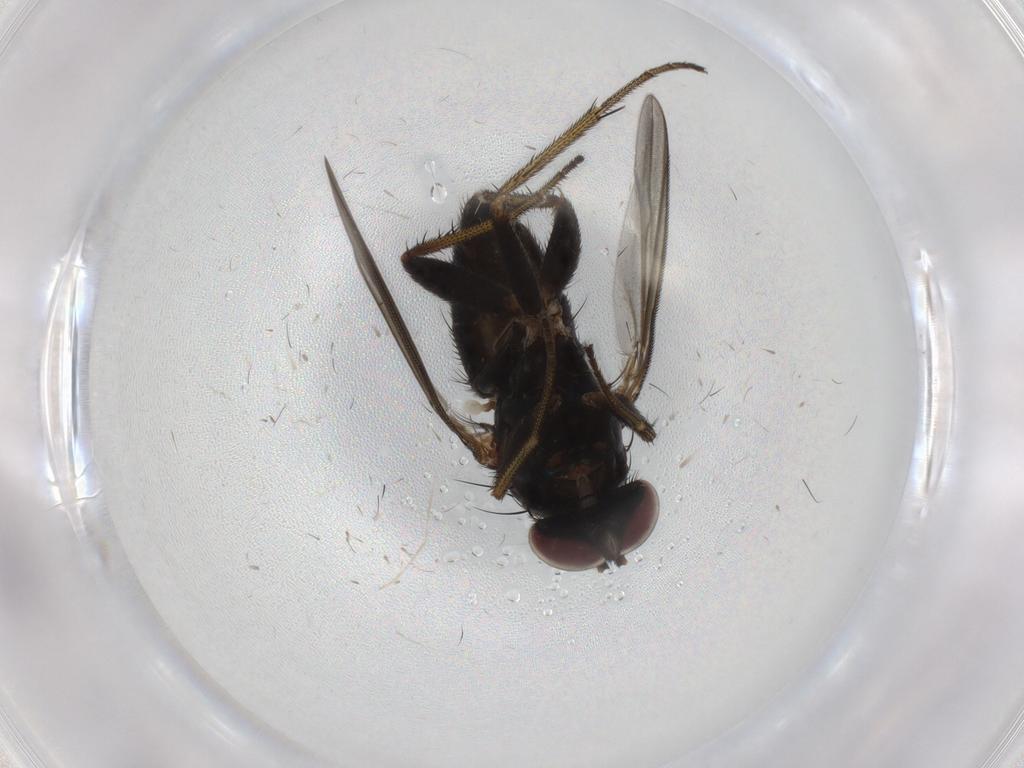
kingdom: Animalia
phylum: Arthropoda
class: Insecta
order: Diptera
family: Dolichopodidae
